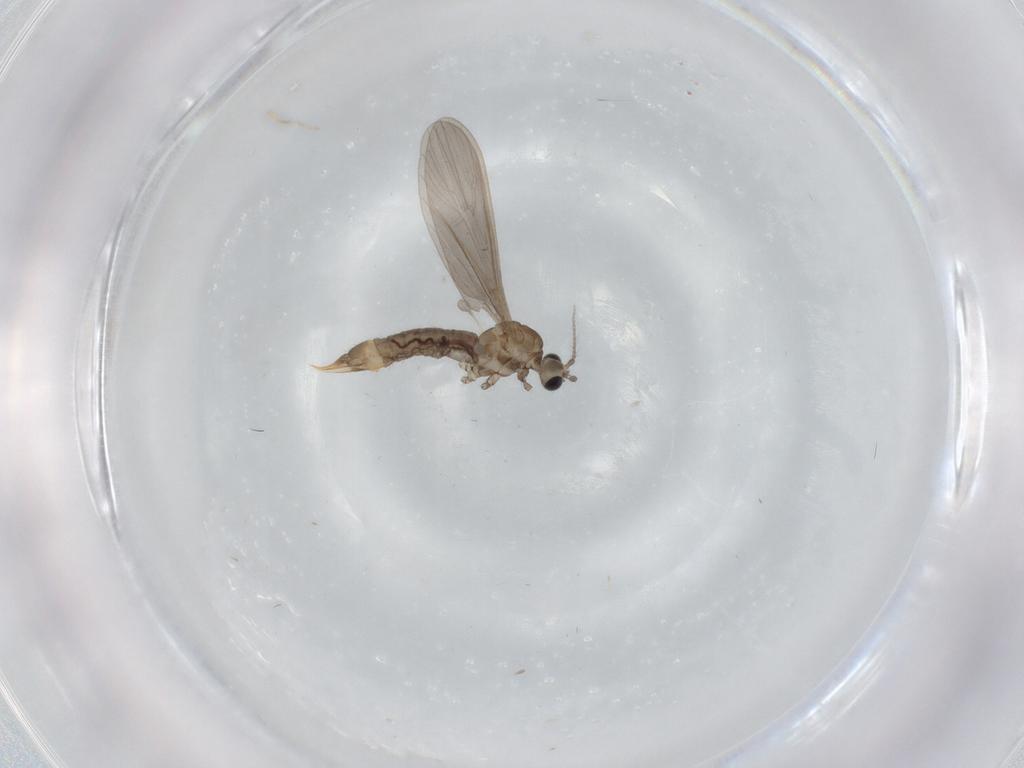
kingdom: Animalia
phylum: Arthropoda
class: Insecta
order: Diptera
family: Limoniidae
